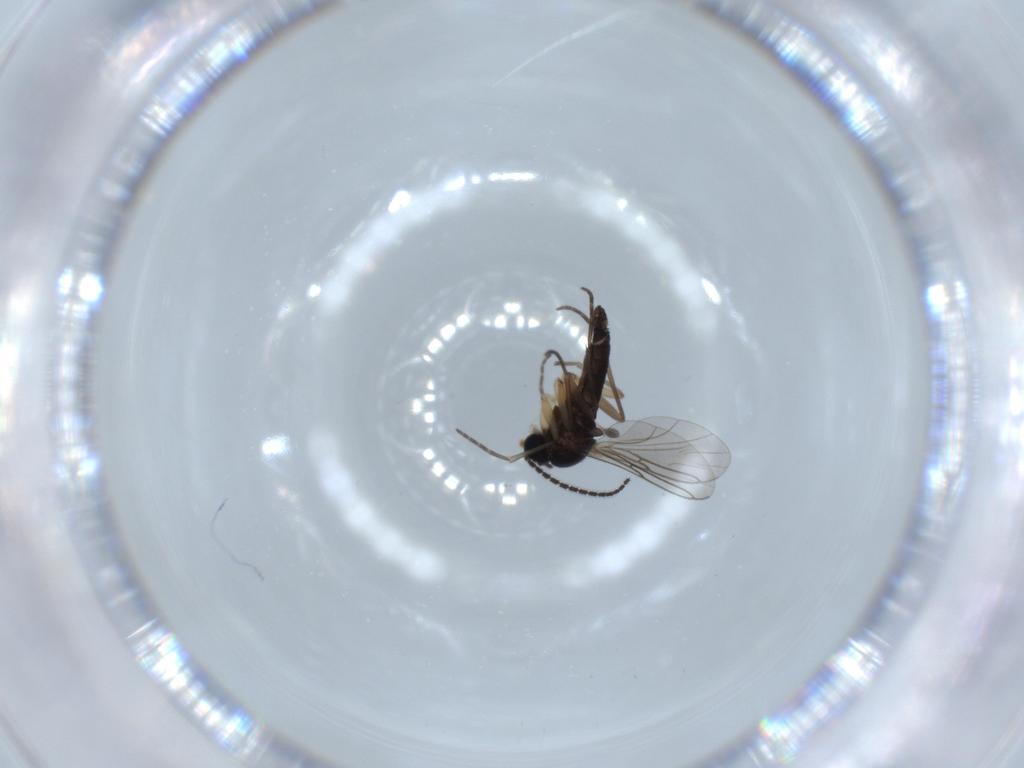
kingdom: Animalia
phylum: Arthropoda
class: Insecta
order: Diptera
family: Sciaridae
